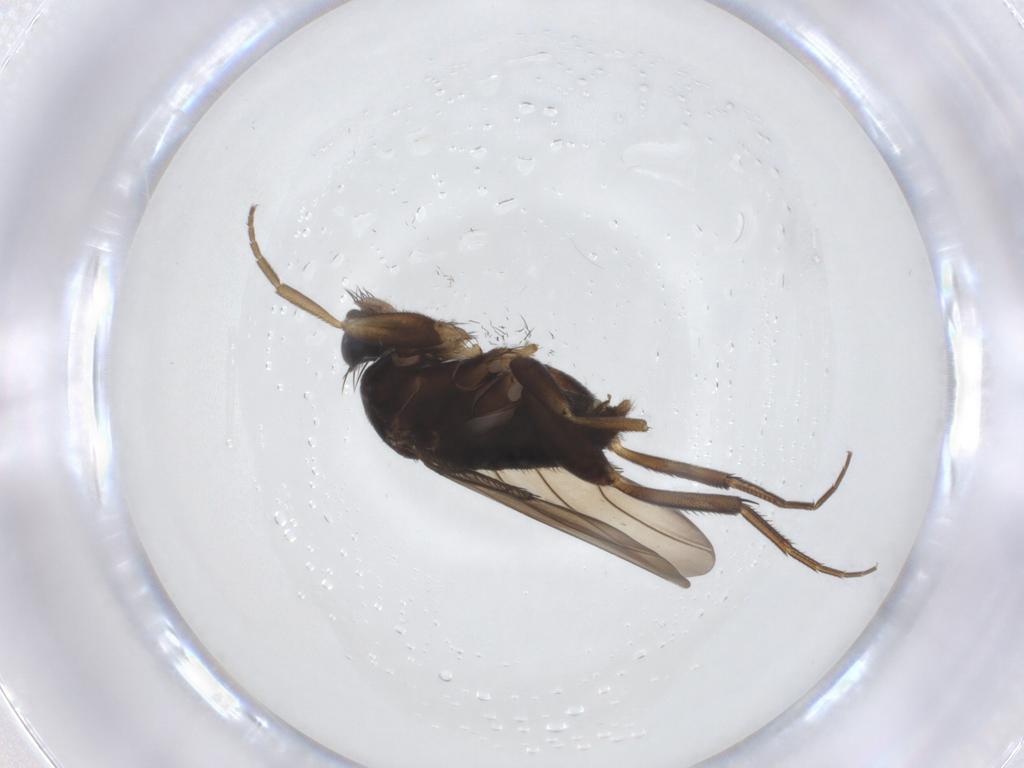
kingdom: Animalia
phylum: Arthropoda
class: Insecta
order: Diptera
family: Phoridae
